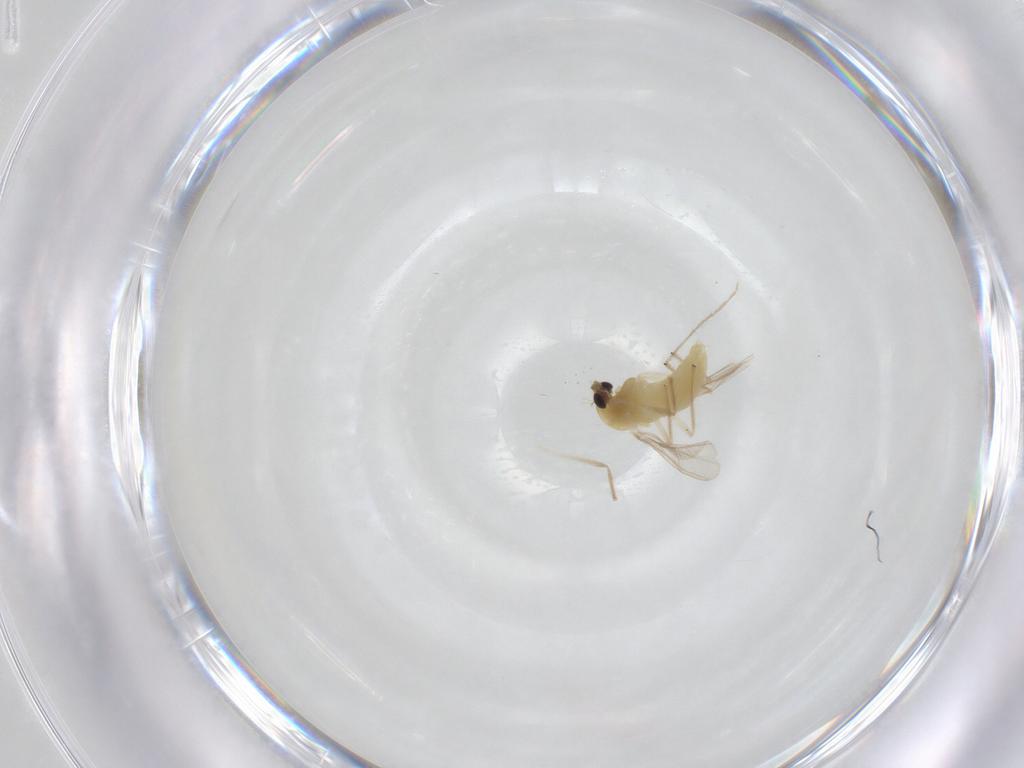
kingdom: Animalia
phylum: Arthropoda
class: Insecta
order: Diptera
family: Chironomidae
